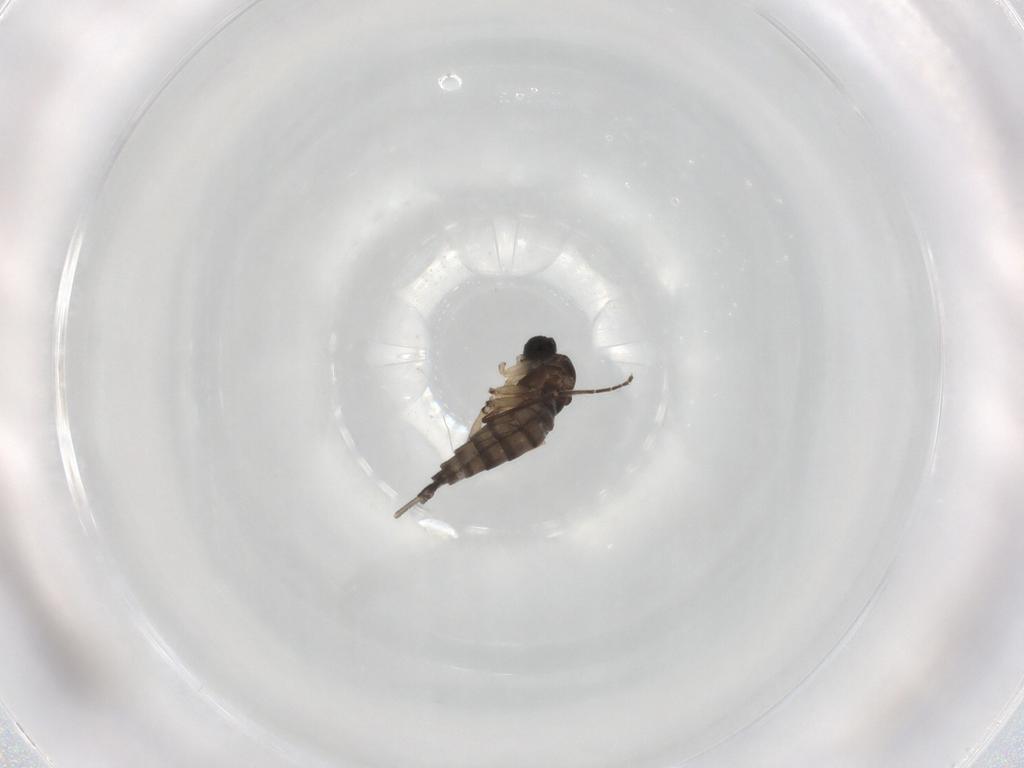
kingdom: Animalia
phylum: Arthropoda
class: Insecta
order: Diptera
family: Sciaridae
